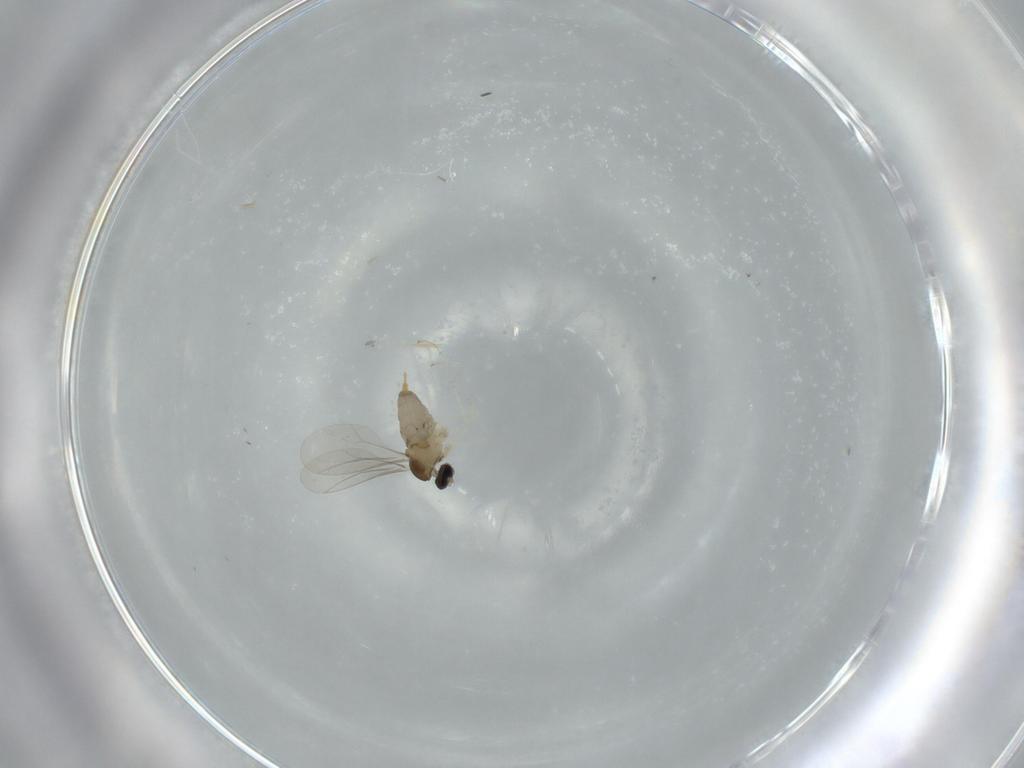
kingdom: Animalia
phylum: Arthropoda
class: Insecta
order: Diptera
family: Cecidomyiidae
